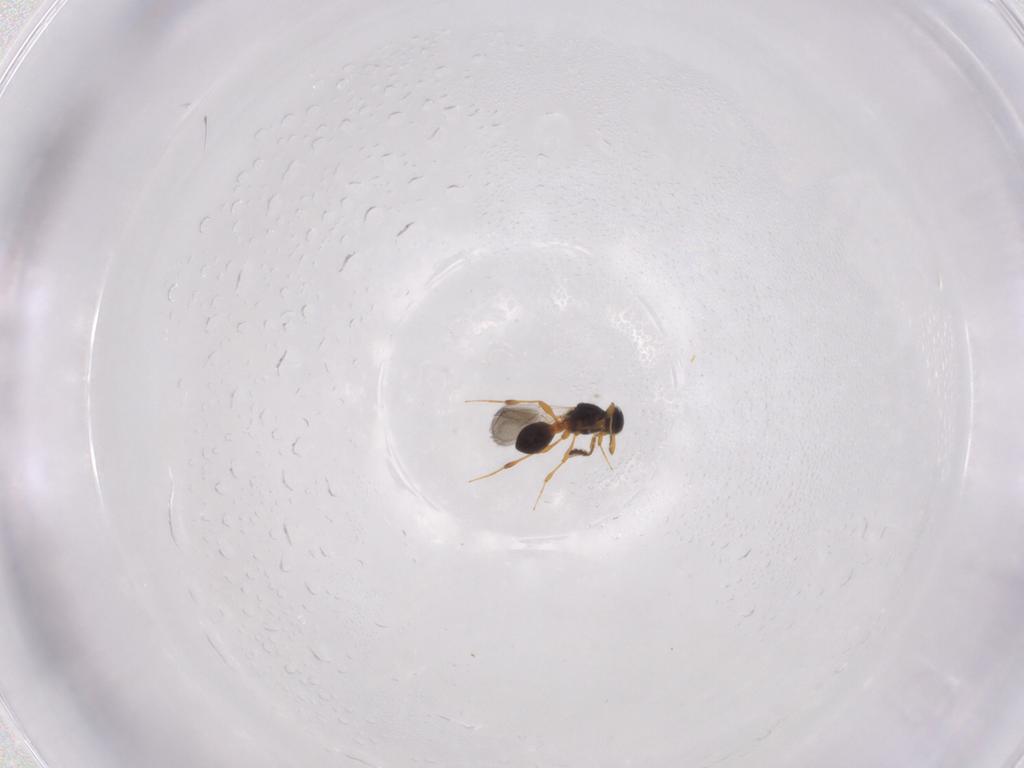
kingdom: Animalia
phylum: Arthropoda
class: Insecta
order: Hymenoptera
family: Platygastridae
